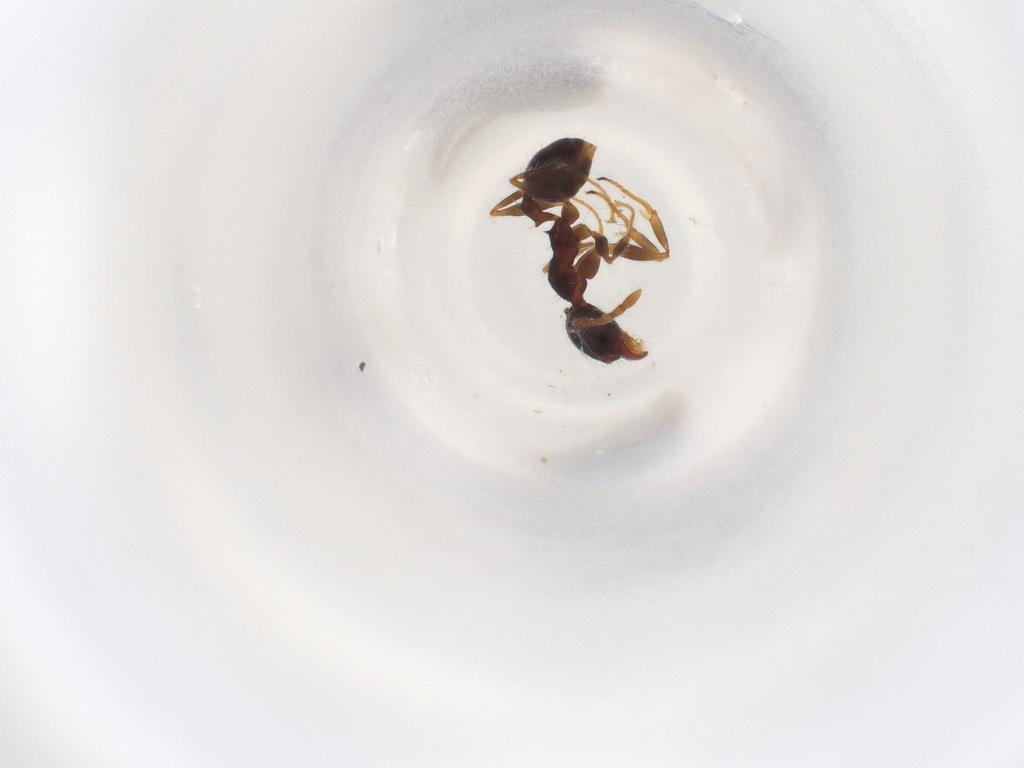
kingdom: Animalia
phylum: Arthropoda
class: Insecta
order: Hymenoptera
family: Formicidae
